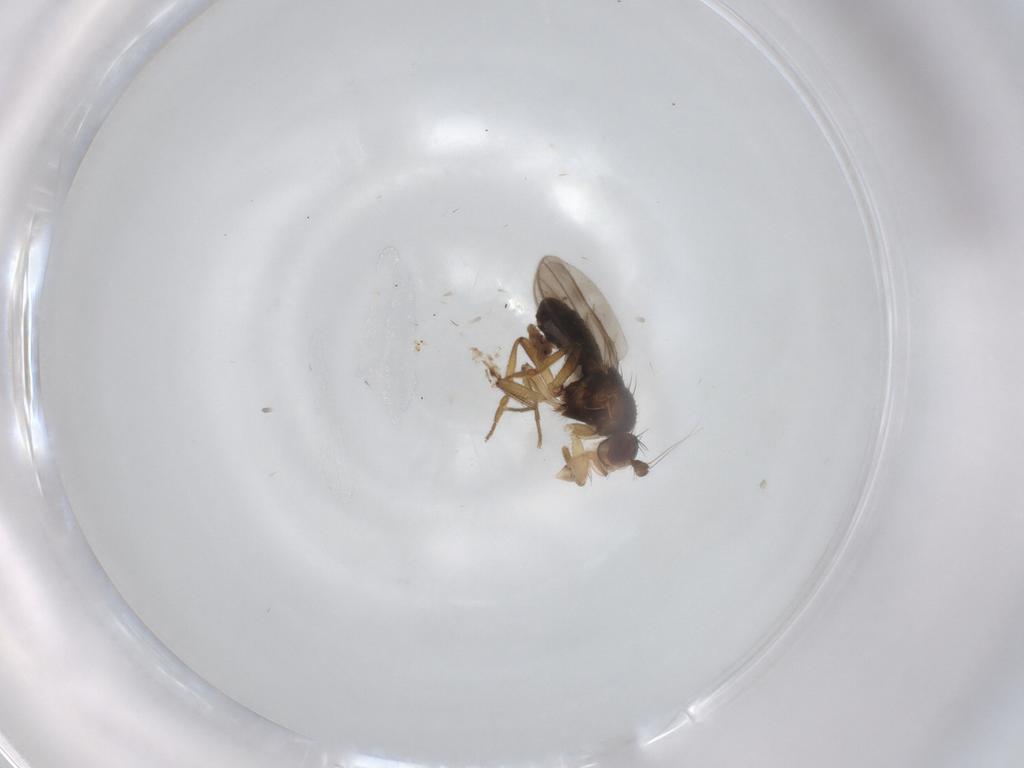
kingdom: Animalia
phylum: Arthropoda
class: Insecta
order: Diptera
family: Sphaeroceridae
